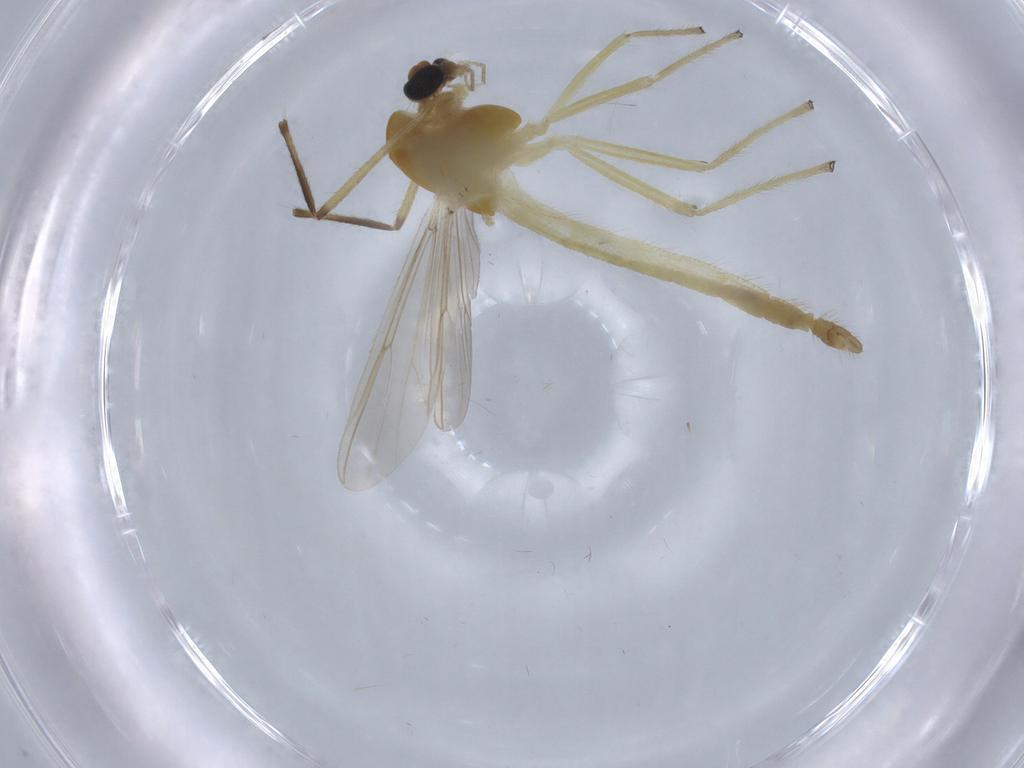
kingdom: Animalia
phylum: Arthropoda
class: Insecta
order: Diptera
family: Chironomidae
